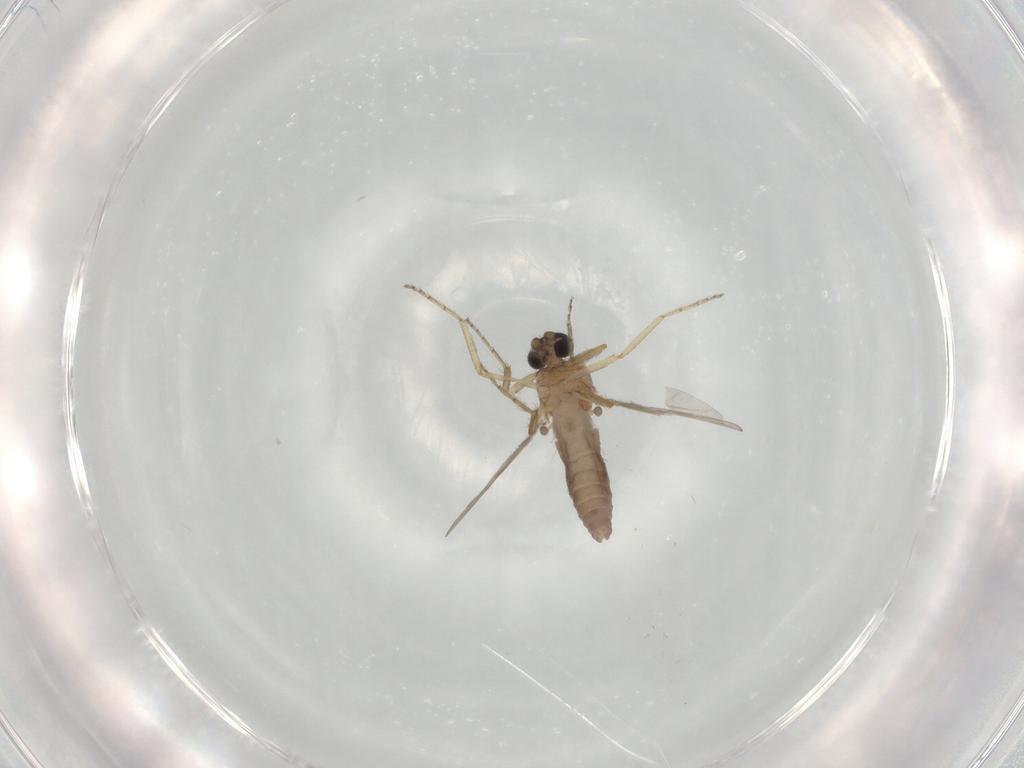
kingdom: Animalia
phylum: Arthropoda
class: Insecta
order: Diptera
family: Ceratopogonidae
